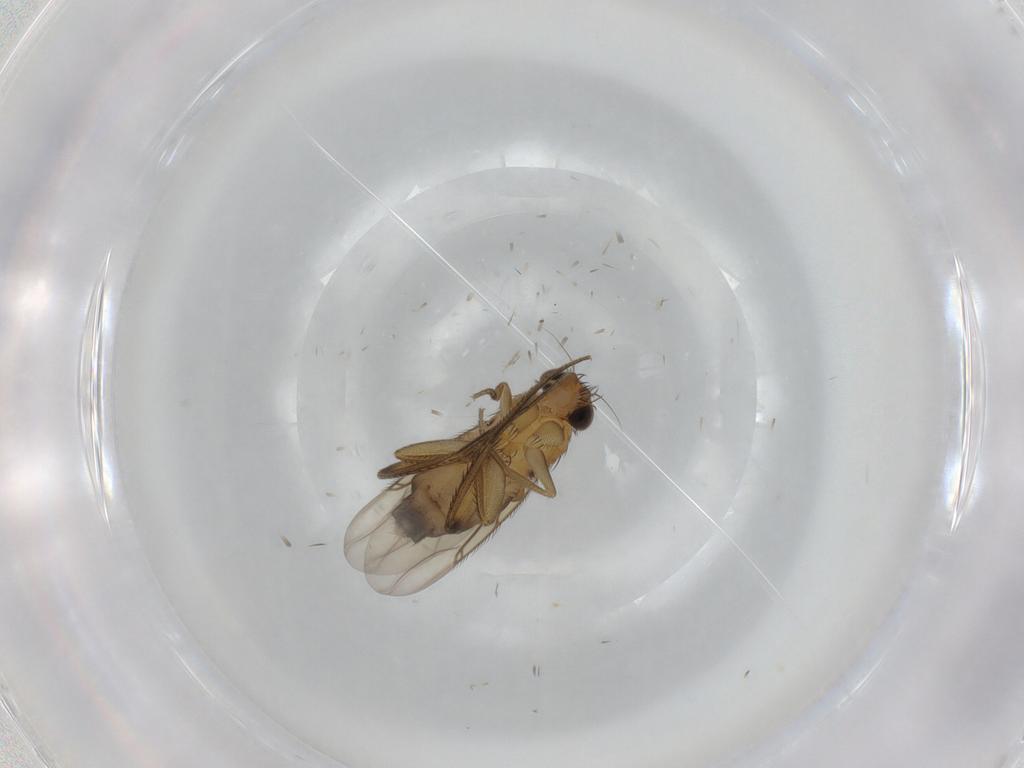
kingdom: Animalia
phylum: Arthropoda
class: Insecta
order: Diptera
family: Phoridae
